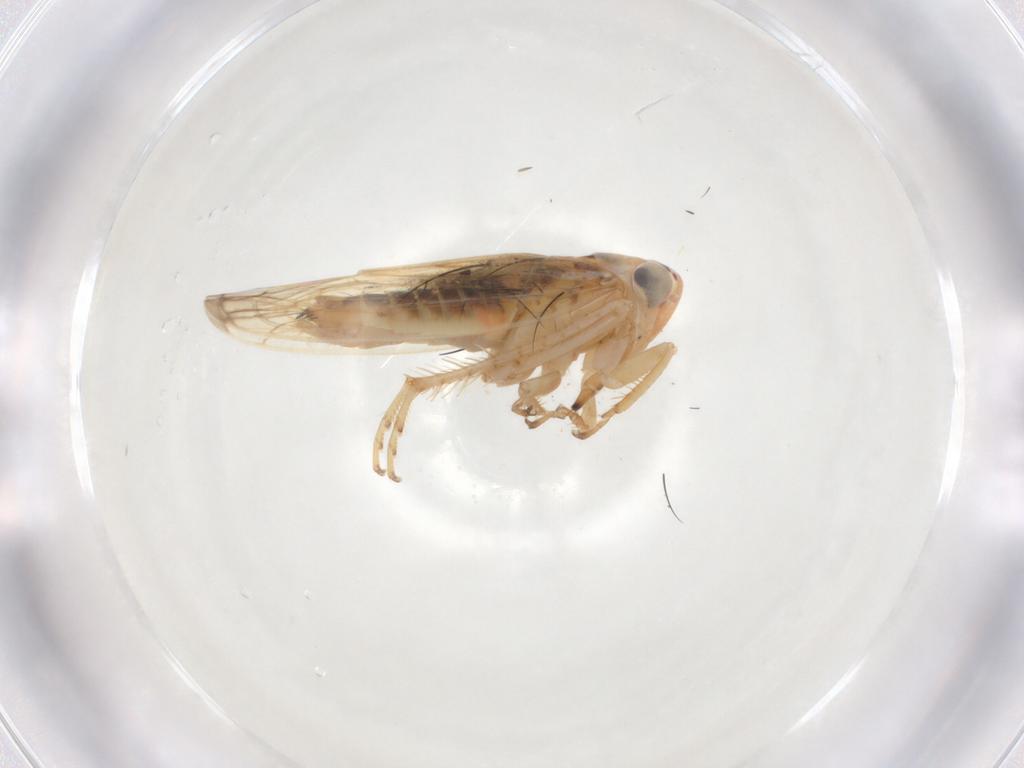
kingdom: Animalia
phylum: Arthropoda
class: Insecta
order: Hemiptera
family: Cicadellidae
